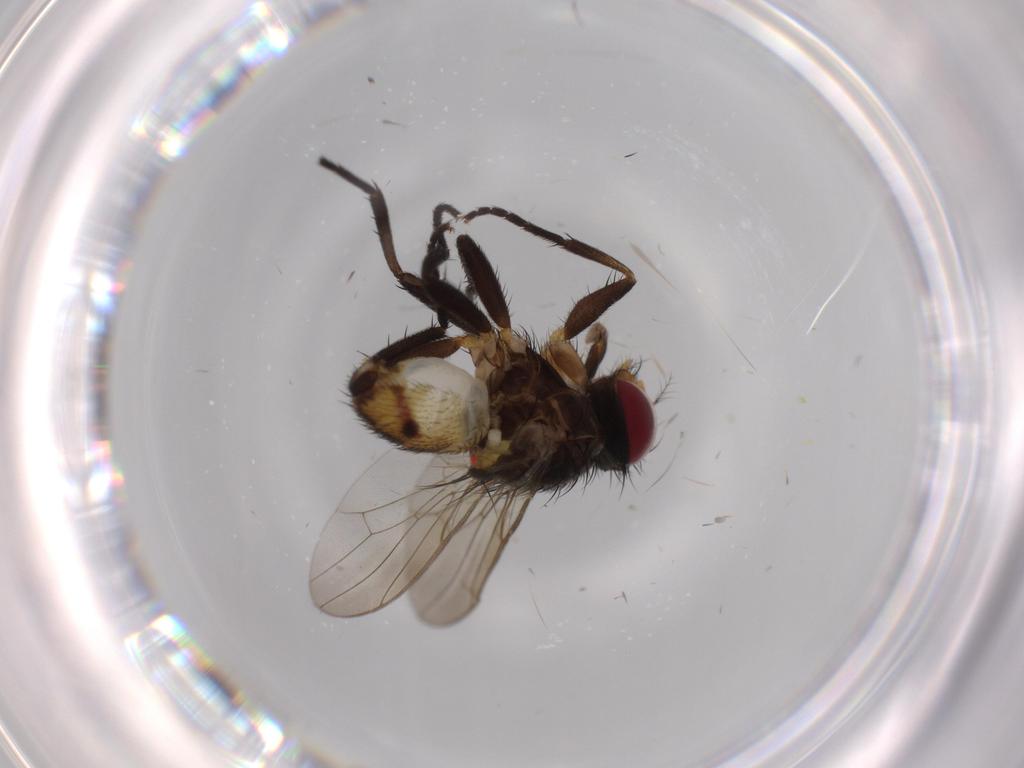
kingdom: Animalia
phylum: Arthropoda
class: Insecta
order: Diptera
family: Anthomyiidae
